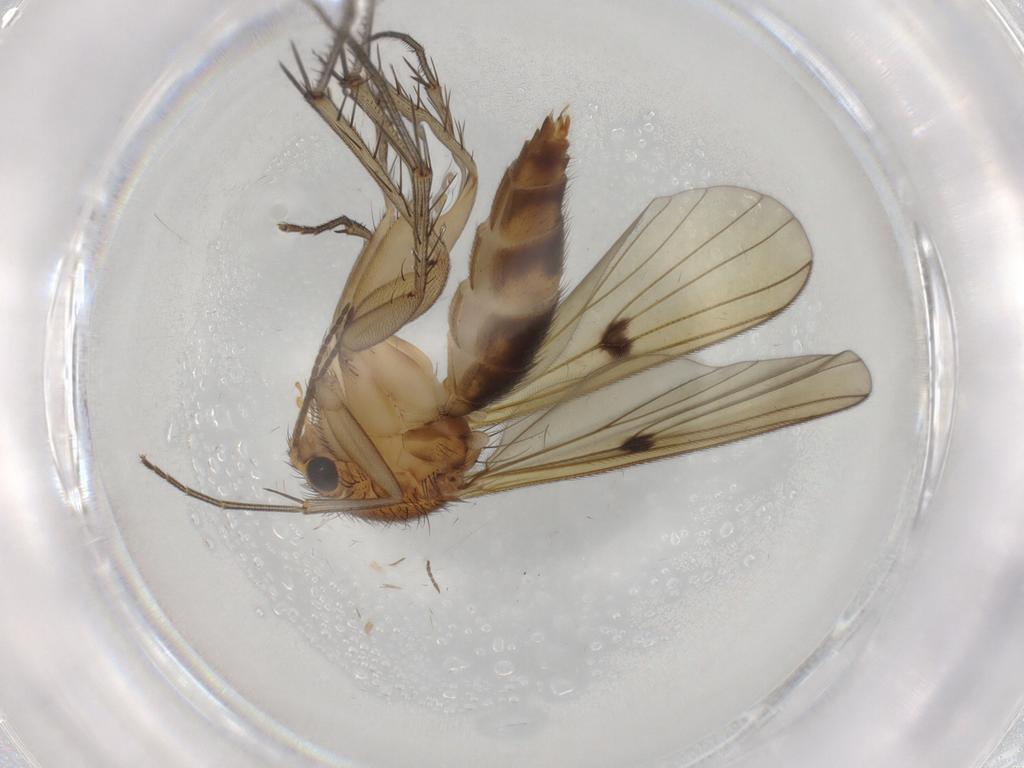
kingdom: Animalia
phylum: Arthropoda
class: Insecta
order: Diptera
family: Mycetophilidae
